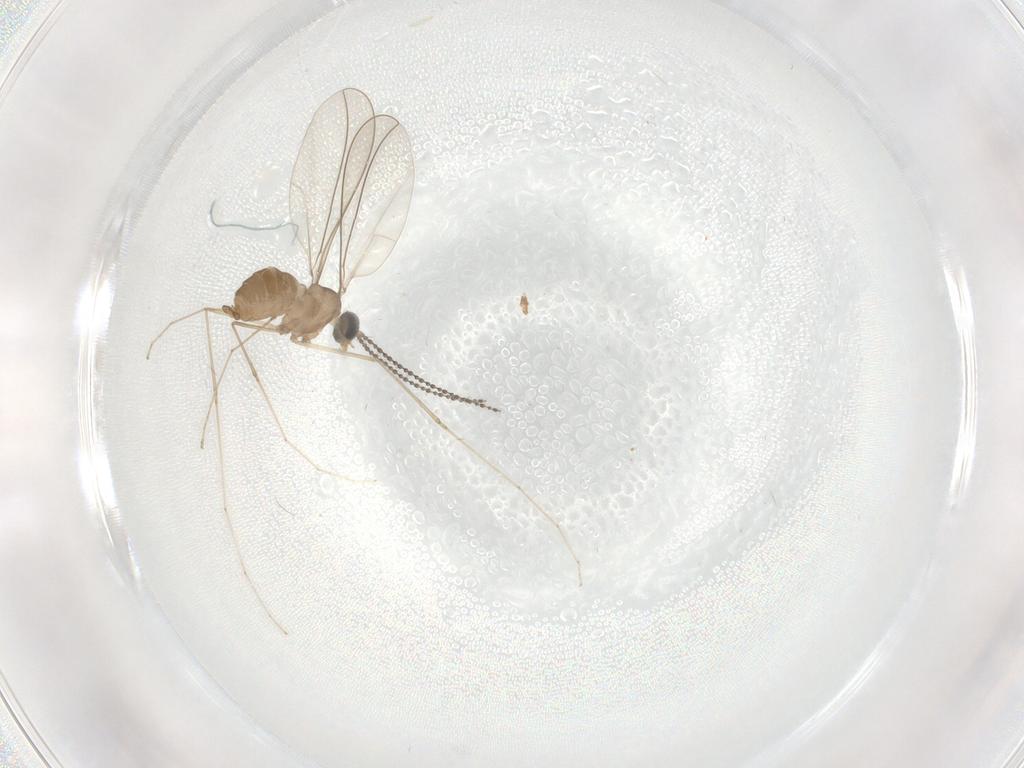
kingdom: Animalia
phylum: Arthropoda
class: Insecta
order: Diptera
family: Cecidomyiidae
